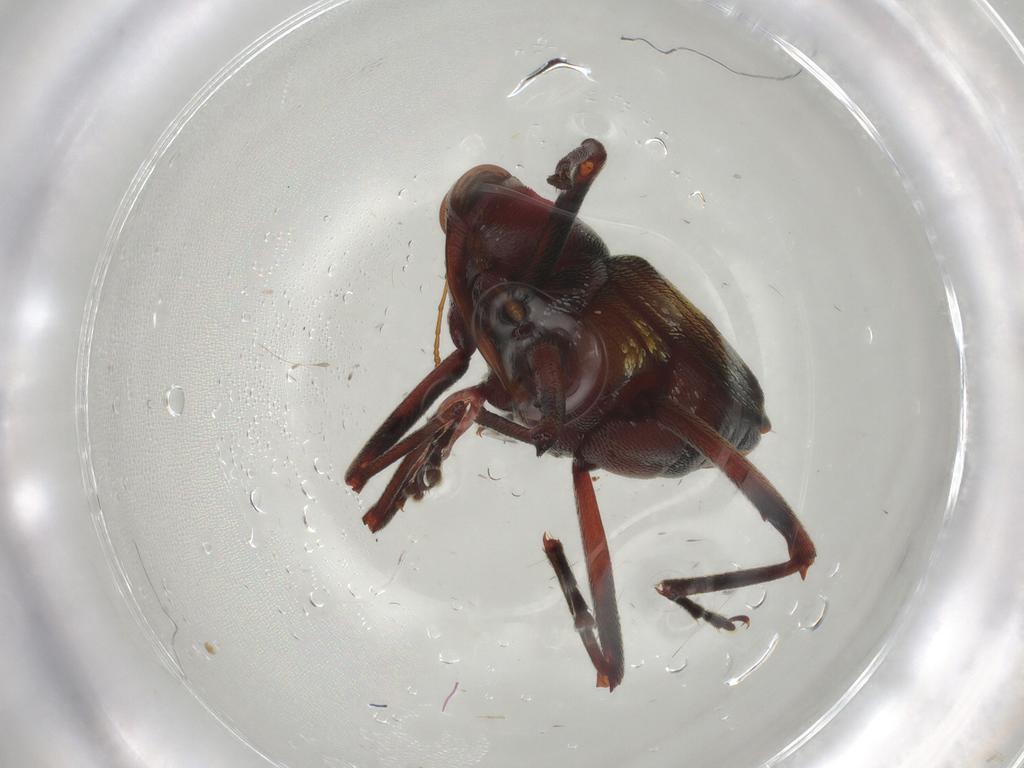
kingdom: Animalia
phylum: Arthropoda
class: Insecta
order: Coleoptera
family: Curculionidae
